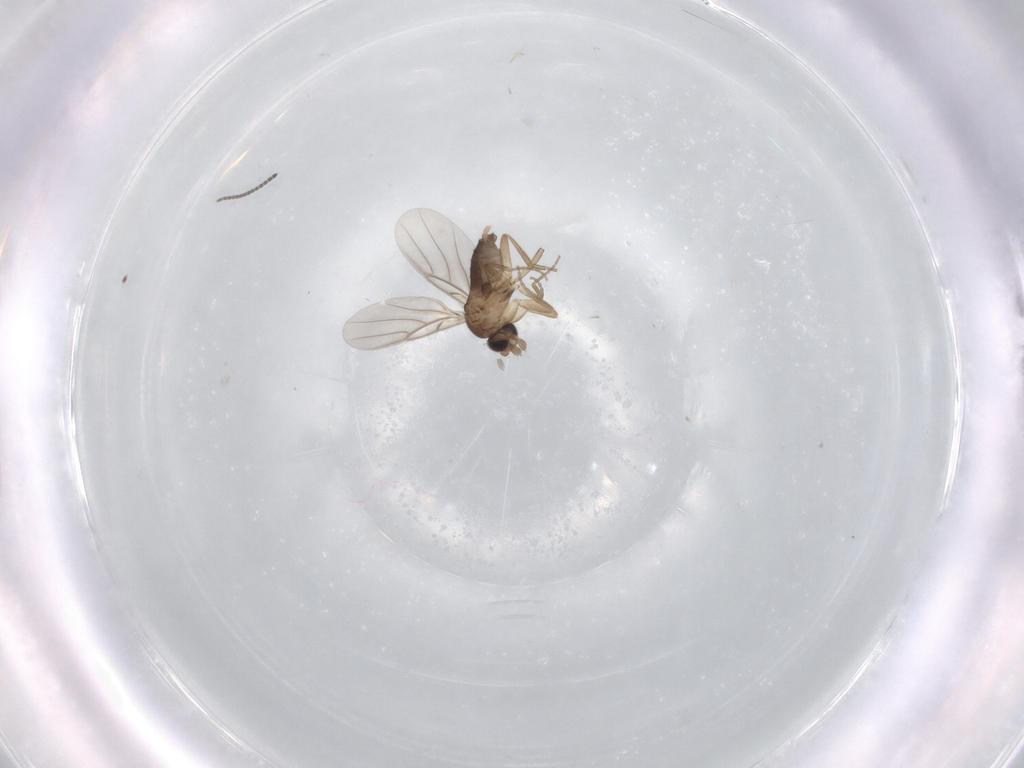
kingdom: Animalia
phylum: Arthropoda
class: Insecta
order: Diptera
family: Phoridae
